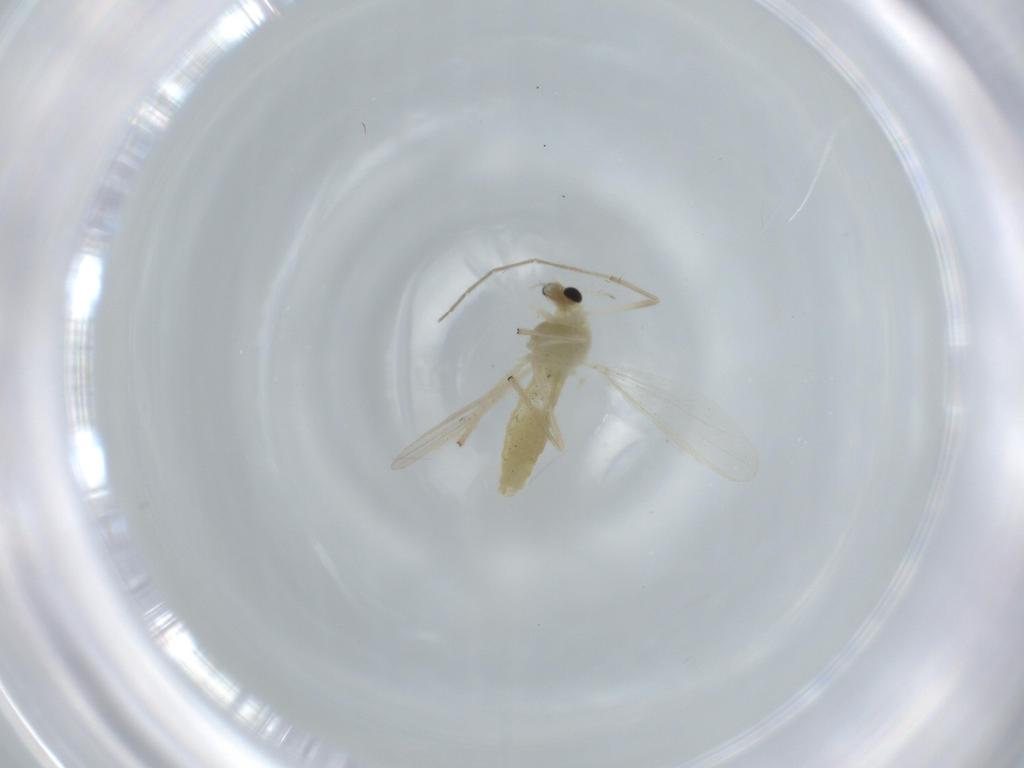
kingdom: Animalia
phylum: Arthropoda
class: Insecta
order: Diptera
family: Chironomidae
